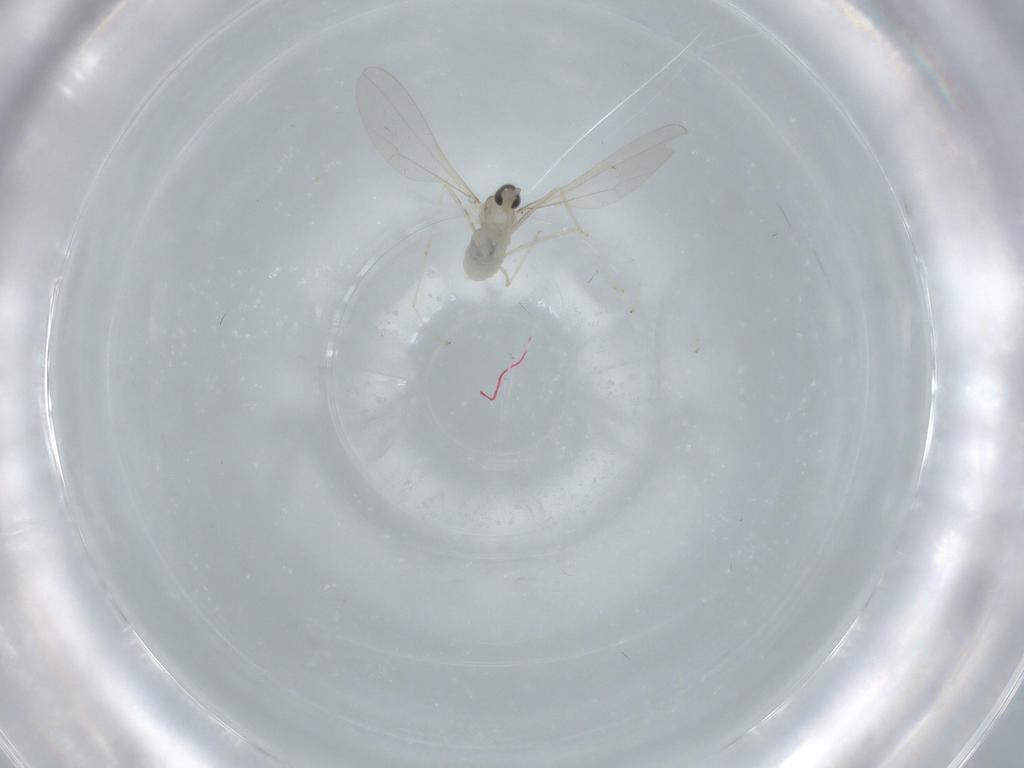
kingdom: Animalia
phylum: Arthropoda
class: Insecta
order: Diptera
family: Cecidomyiidae
